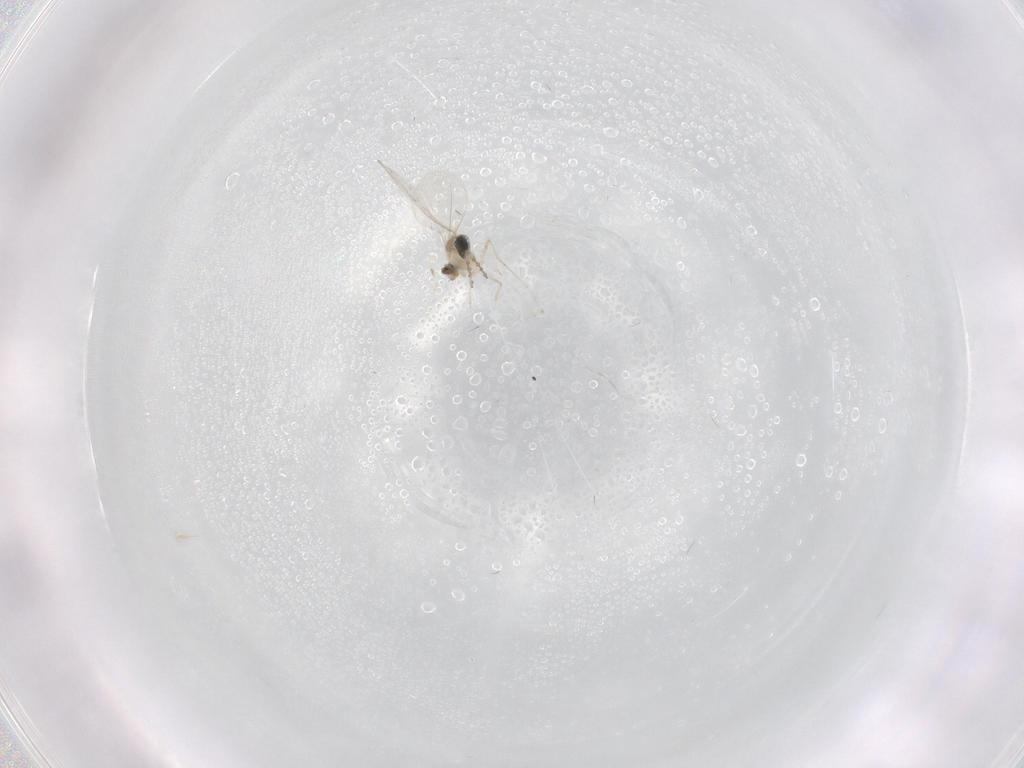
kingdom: Animalia
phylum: Arthropoda
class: Insecta
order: Diptera
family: Cecidomyiidae
